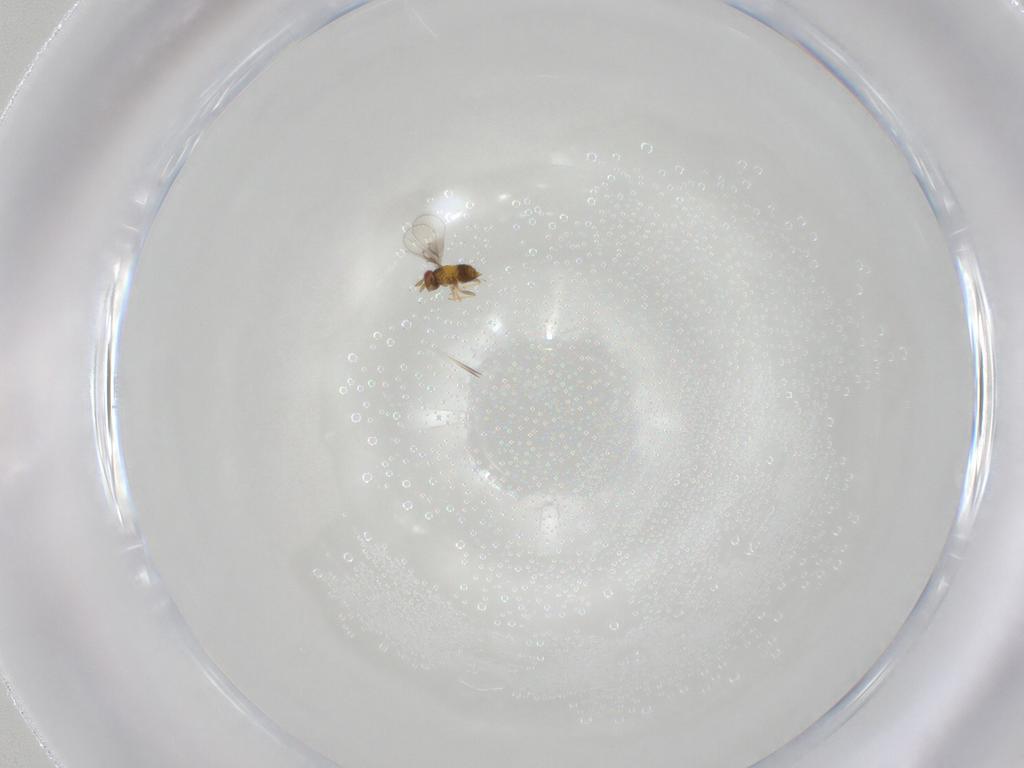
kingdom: Animalia
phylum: Arthropoda
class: Insecta
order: Hymenoptera
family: Trichogrammatidae
